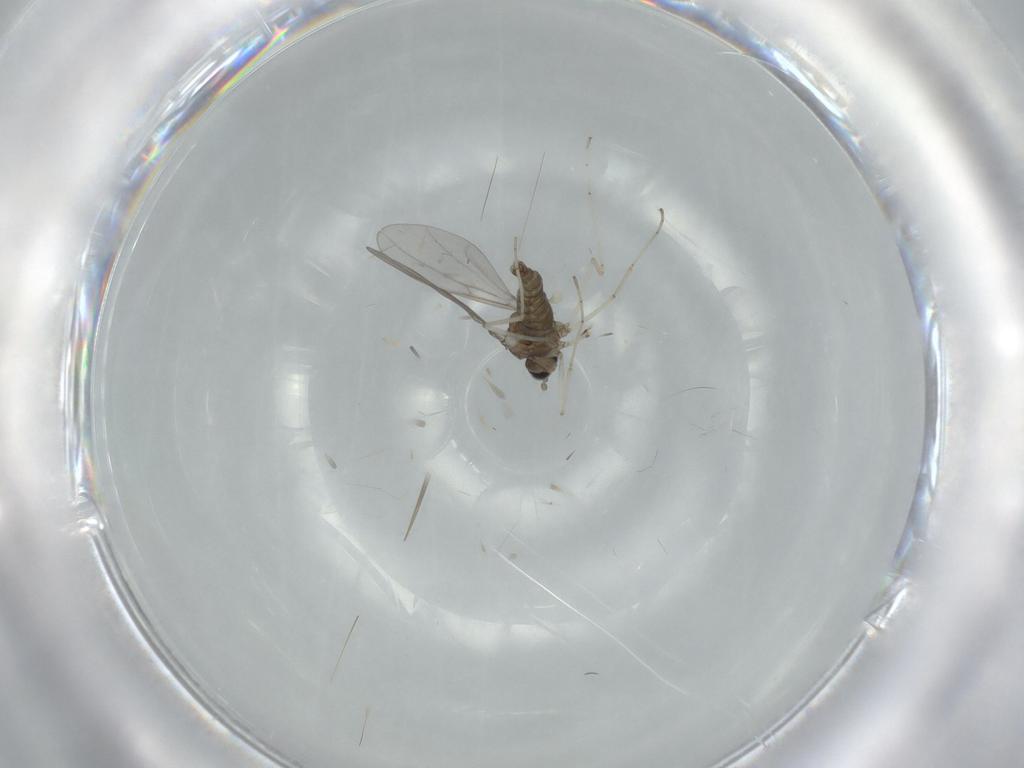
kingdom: Animalia
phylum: Arthropoda
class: Insecta
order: Diptera
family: Cecidomyiidae
